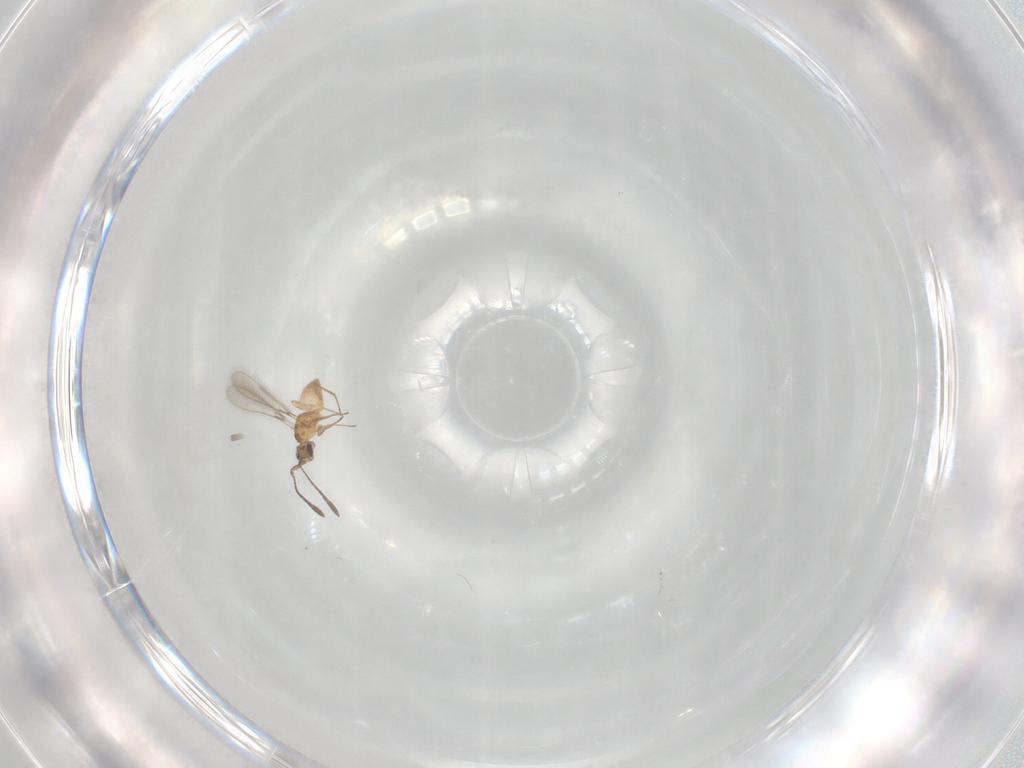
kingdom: Animalia
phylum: Arthropoda
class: Insecta
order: Hymenoptera
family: Mymaridae
